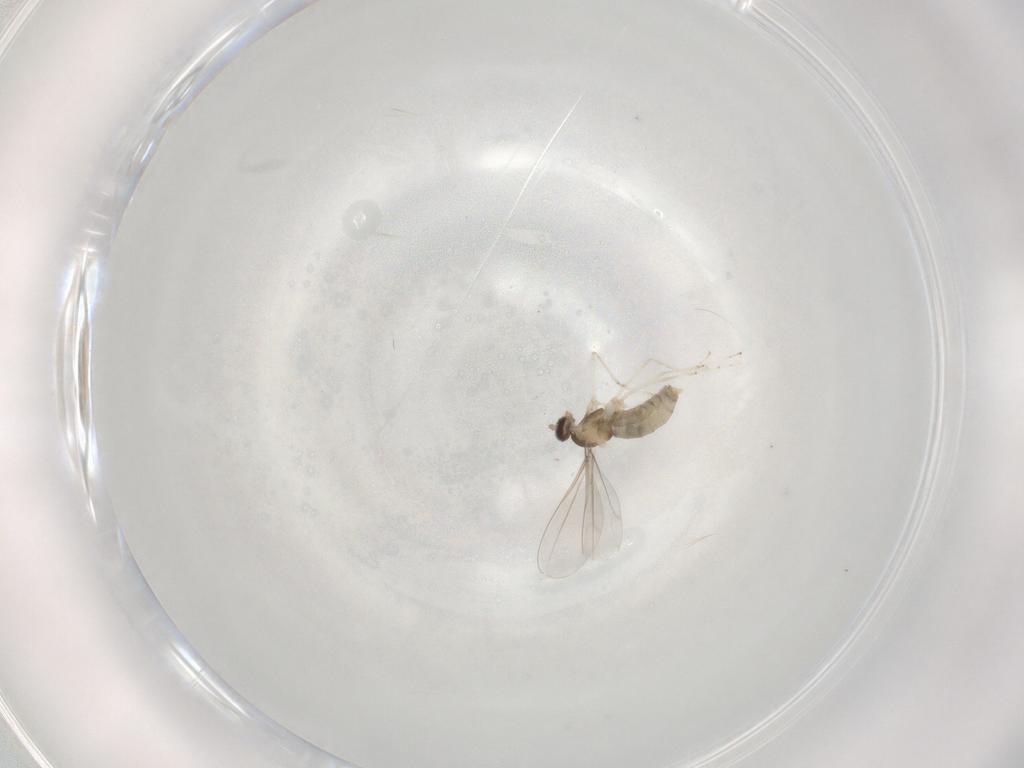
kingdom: Animalia
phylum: Arthropoda
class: Insecta
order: Diptera
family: Cecidomyiidae
